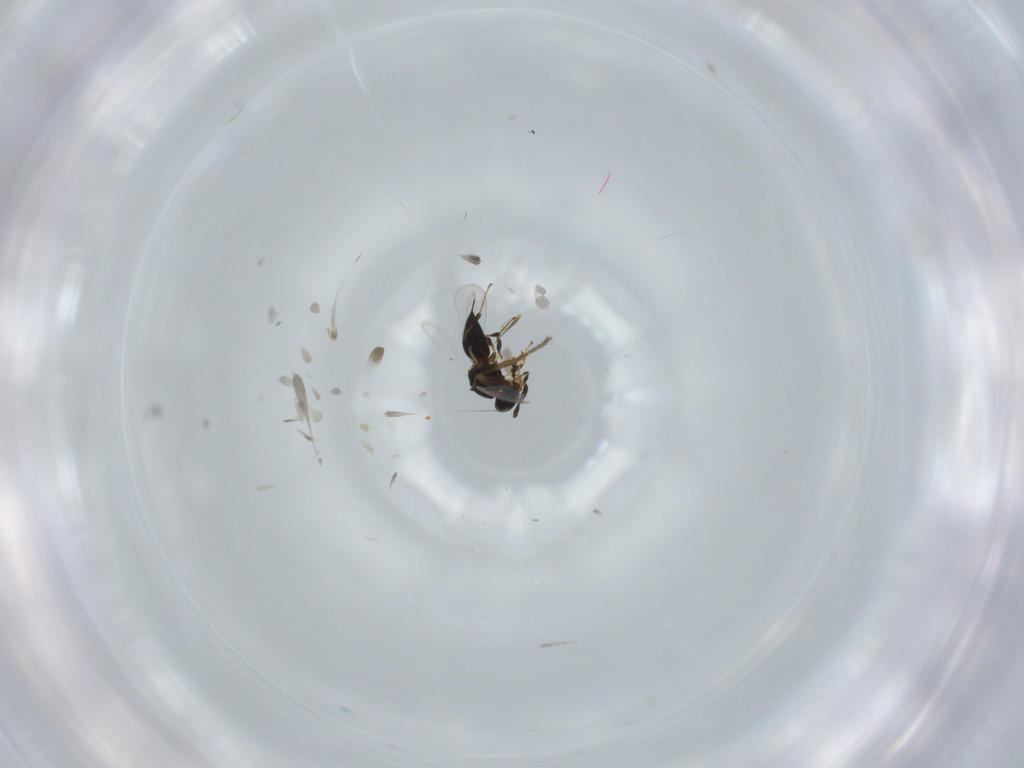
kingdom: Animalia
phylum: Arthropoda
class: Insecta
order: Hymenoptera
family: Platygastridae
